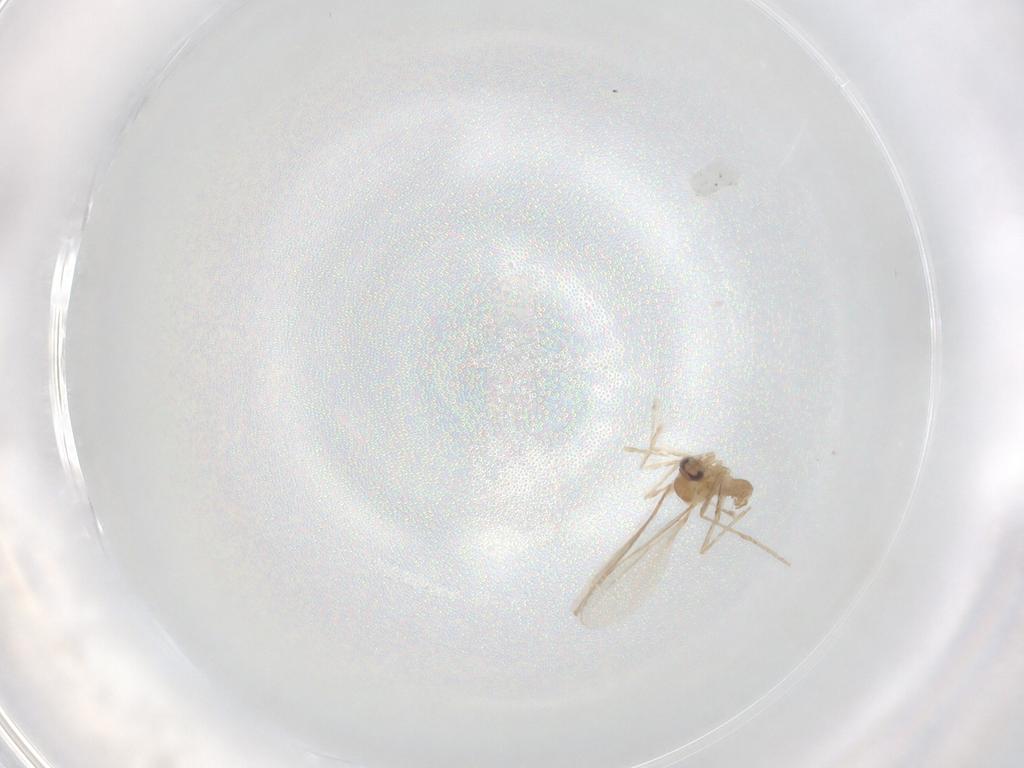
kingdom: Animalia
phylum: Arthropoda
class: Insecta
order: Diptera
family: Cecidomyiidae
